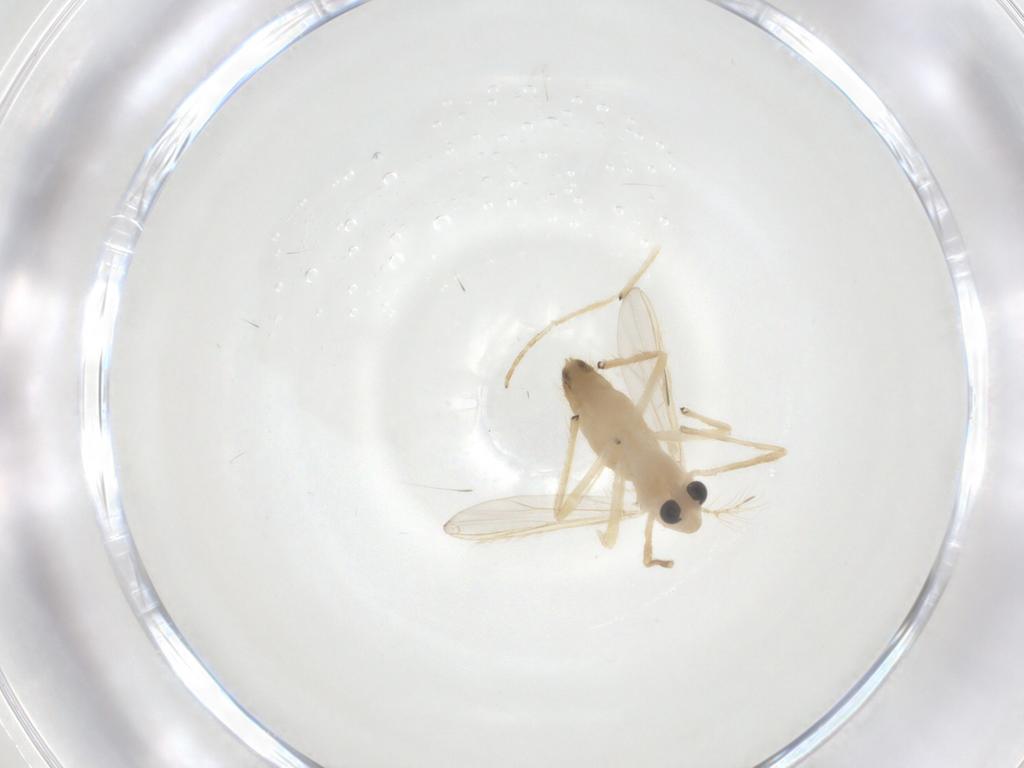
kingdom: Animalia
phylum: Arthropoda
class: Insecta
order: Diptera
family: Chironomidae
